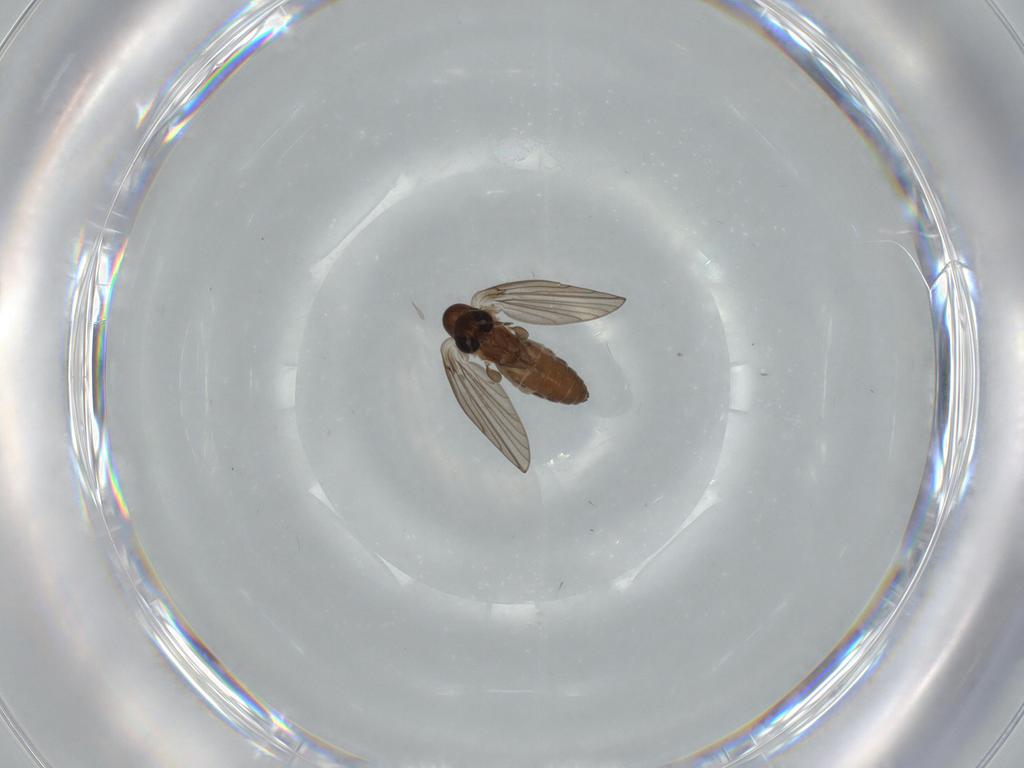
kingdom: Animalia
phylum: Arthropoda
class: Insecta
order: Diptera
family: Psychodidae
